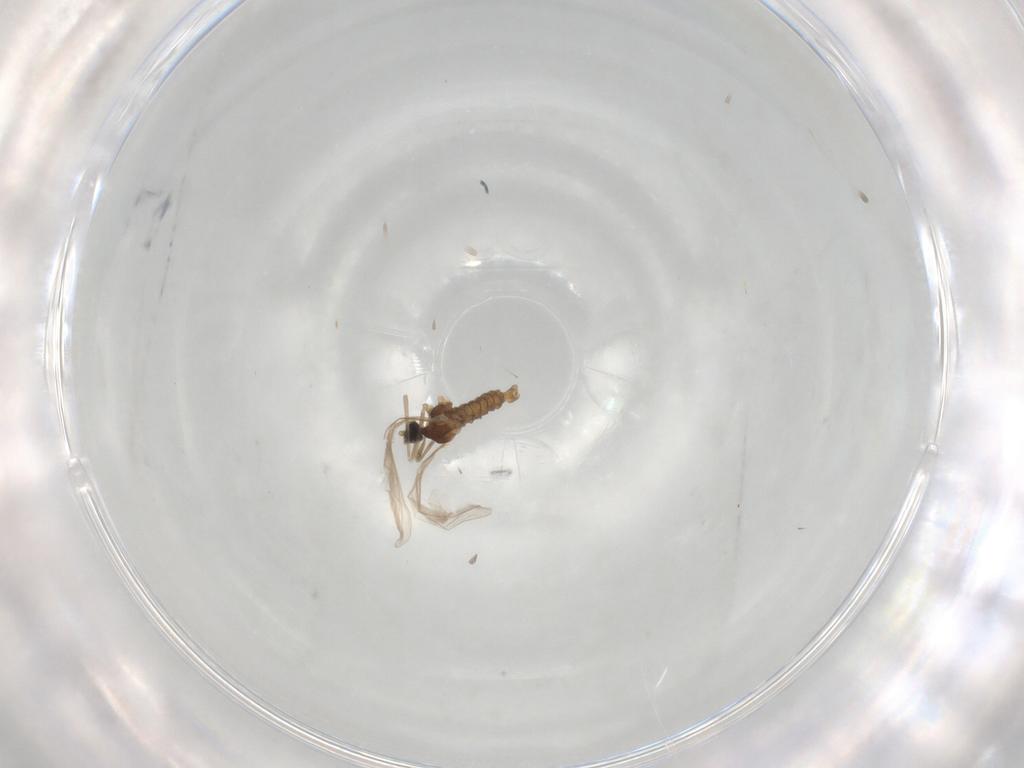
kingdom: Animalia
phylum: Arthropoda
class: Insecta
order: Diptera
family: Cecidomyiidae
